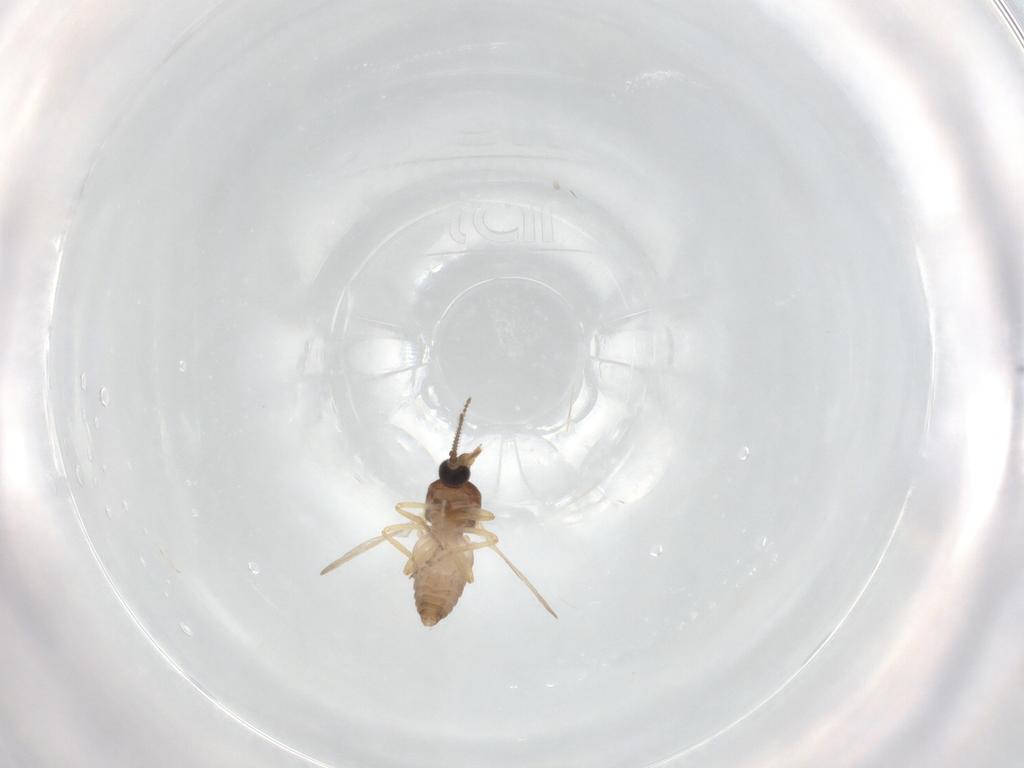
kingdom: Animalia
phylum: Arthropoda
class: Insecta
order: Diptera
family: Ceratopogonidae
